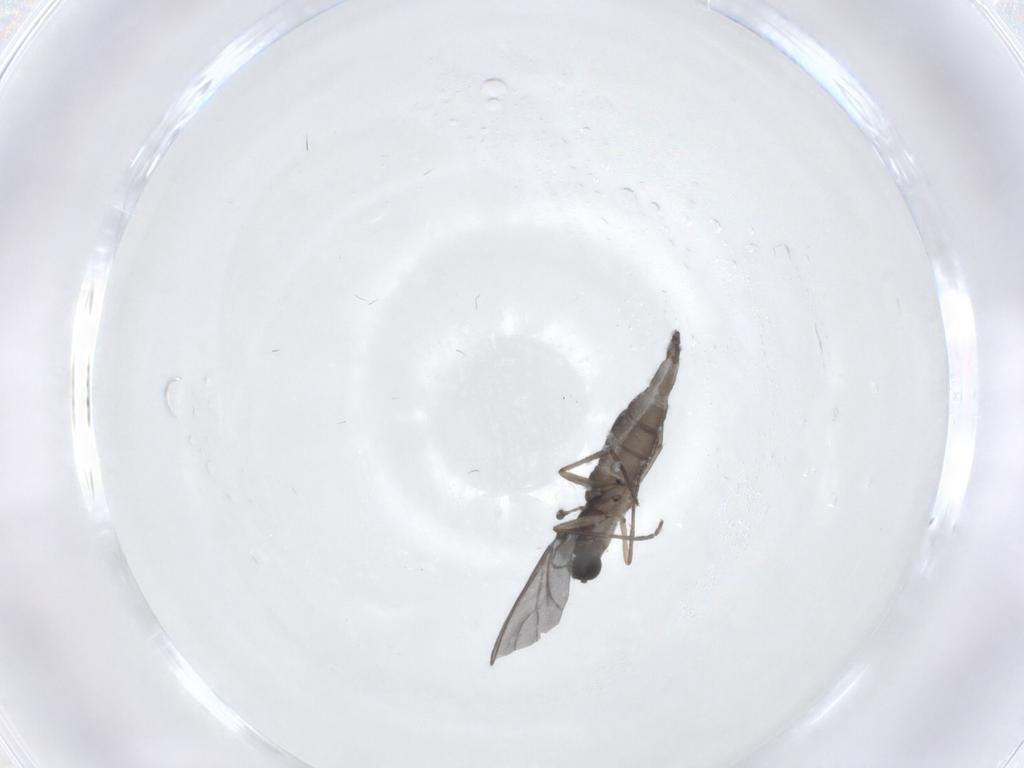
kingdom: Animalia
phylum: Arthropoda
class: Insecta
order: Diptera
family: Sciaridae
